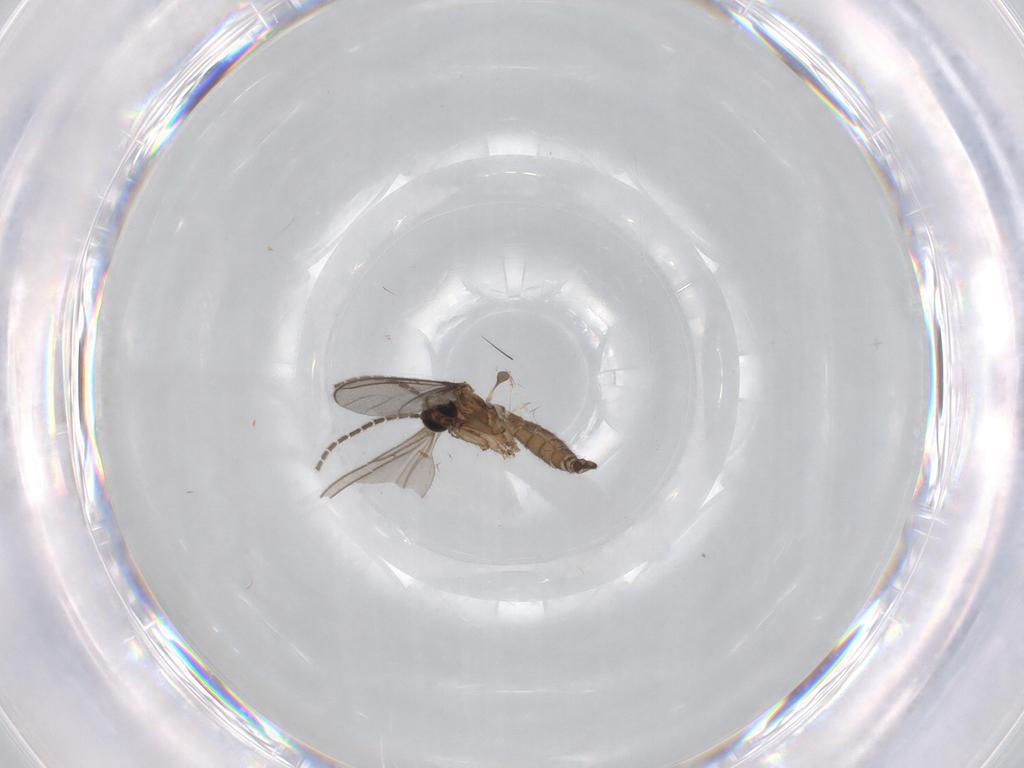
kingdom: Animalia
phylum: Arthropoda
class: Insecta
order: Diptera
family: Sciaridae
